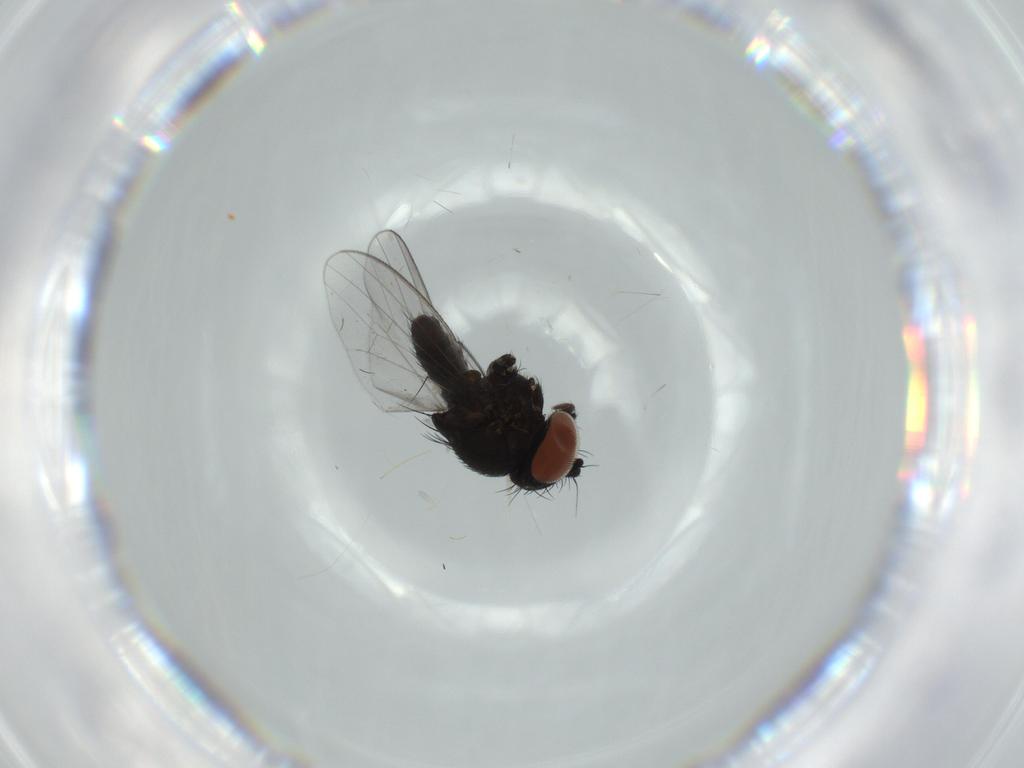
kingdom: Animalia
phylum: Arthropoda
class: Insecta
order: Diptera
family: Milichiidae
